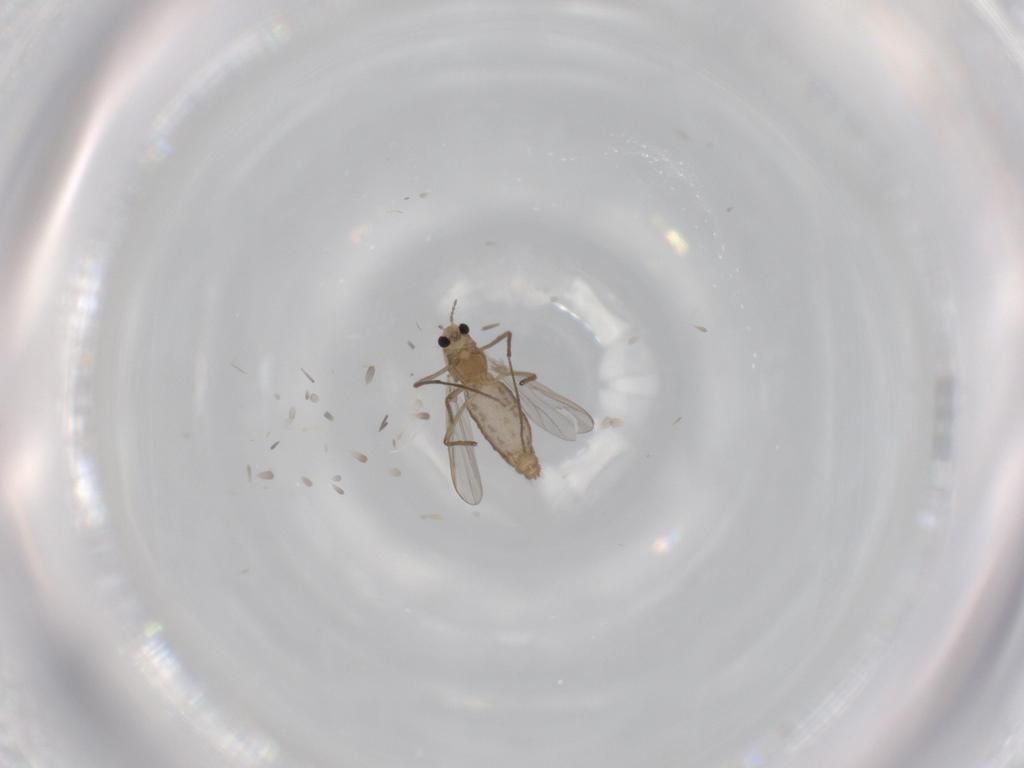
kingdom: Animalia
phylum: Arthropoda
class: Insecta
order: Diptera
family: Chironomidae
